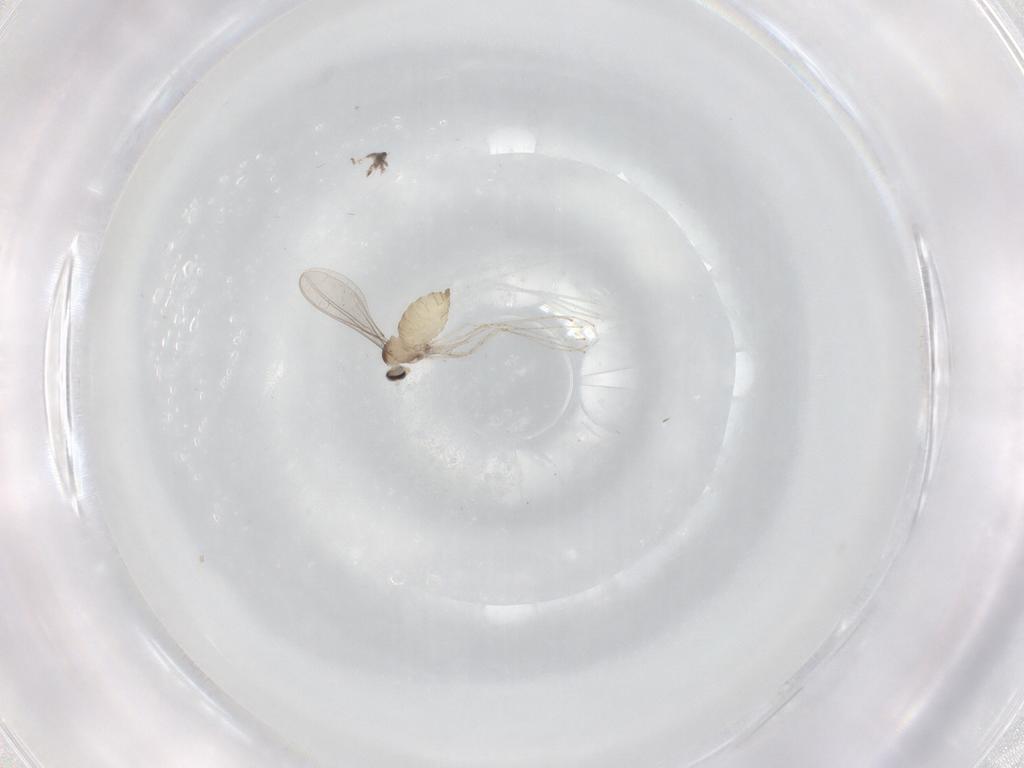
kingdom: Animalia
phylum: Arthropoda
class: Insecta
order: Diptera
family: Cecidomyiidae
